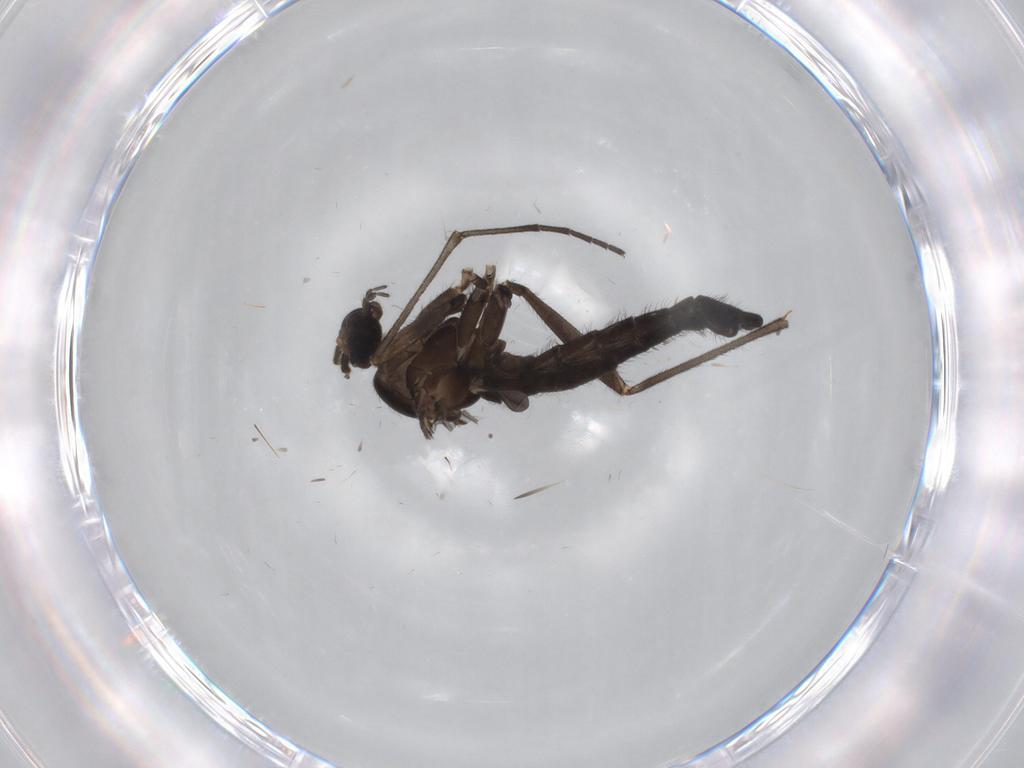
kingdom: Animalia
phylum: Arthropoda
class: Insecta
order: Diptera
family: Sciaridae
